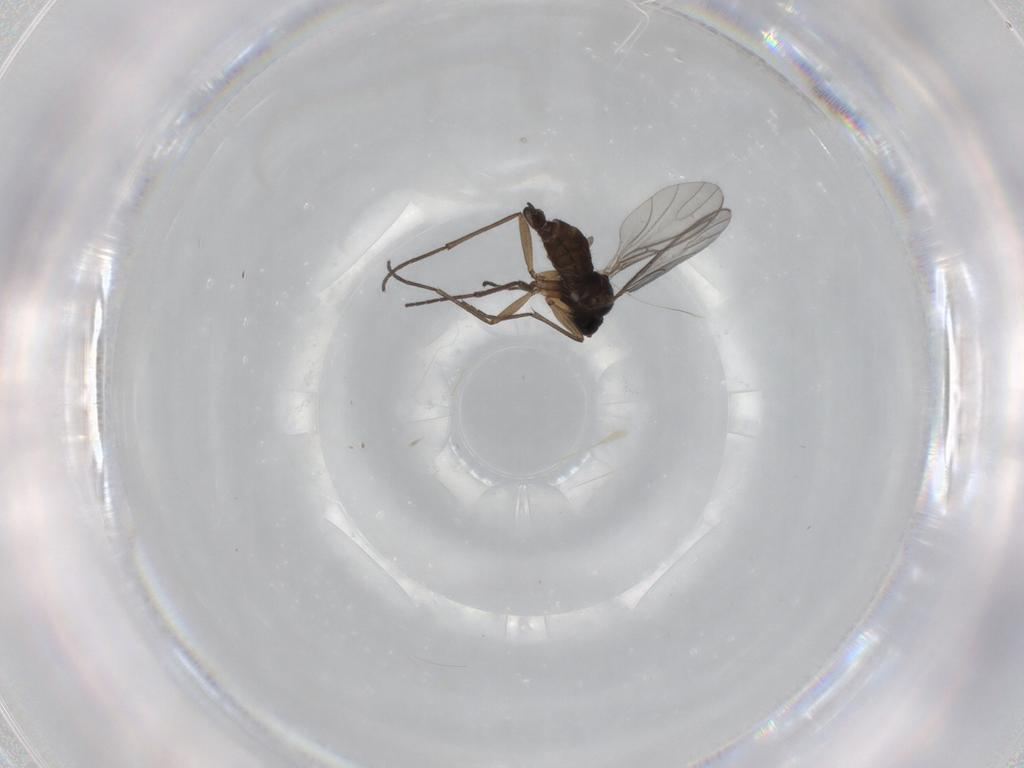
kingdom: Animalia
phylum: Arthropoda
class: Insecta
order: Diptera
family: Sciaridae
